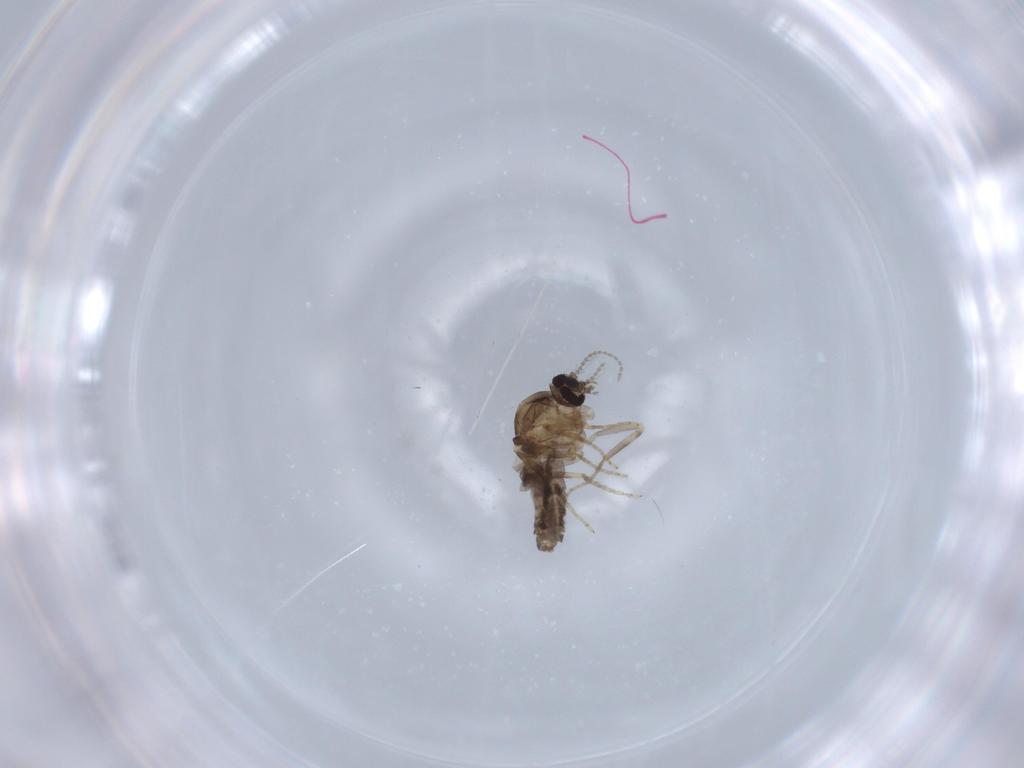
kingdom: Animalia
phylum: Arthropoda
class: Insecta
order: Diptera
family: Ceratopogonidae
